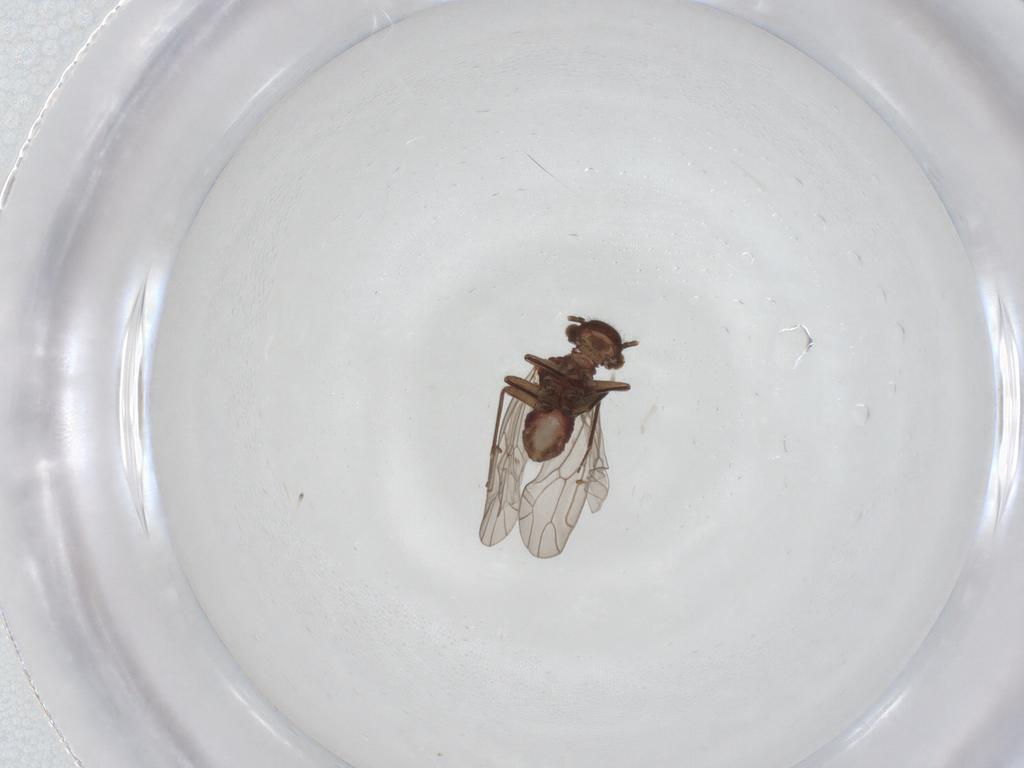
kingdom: Animalia
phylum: Arthropoda
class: Insecta
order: Psocodea
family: Ectopsocidae
